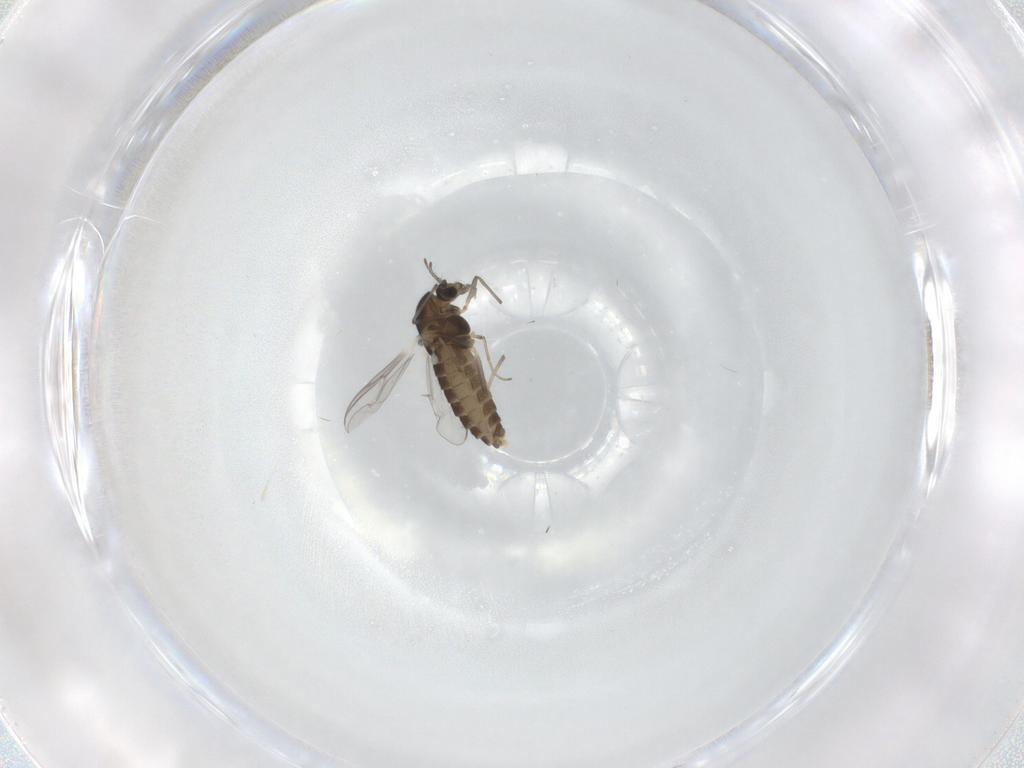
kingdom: Animalia
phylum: Arthropoda
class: Insecta
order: Diptera
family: Chironomidae
